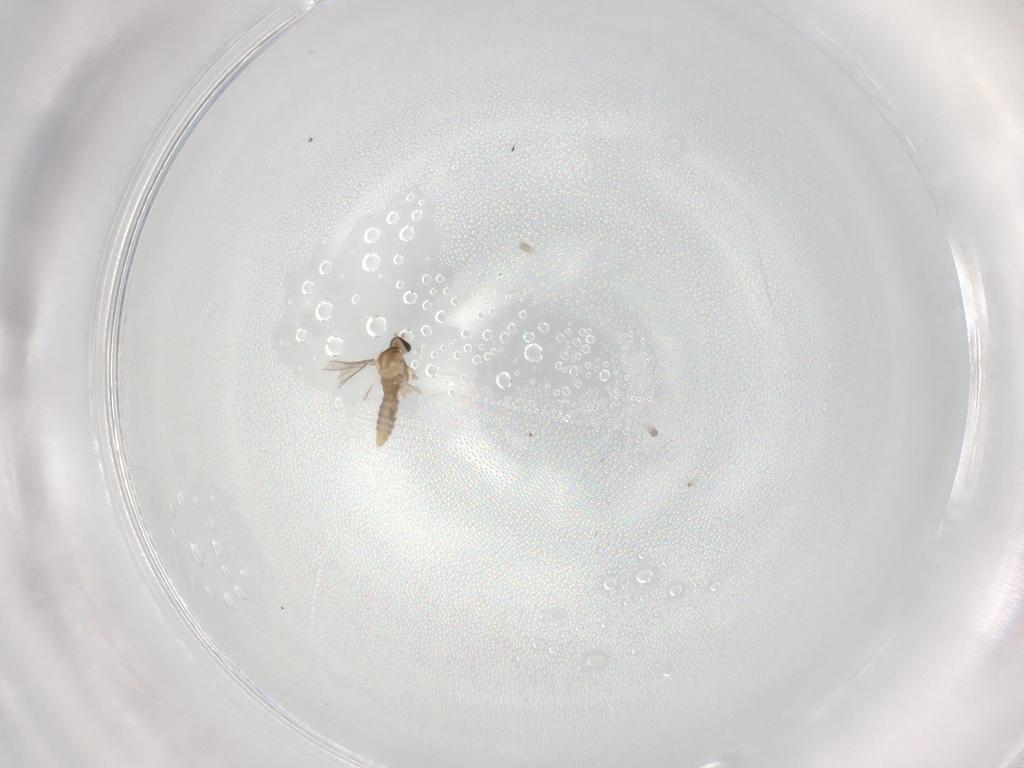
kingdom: Animalia
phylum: Arthropoda
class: Insecta
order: Diptera
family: Cecidomyiidae
